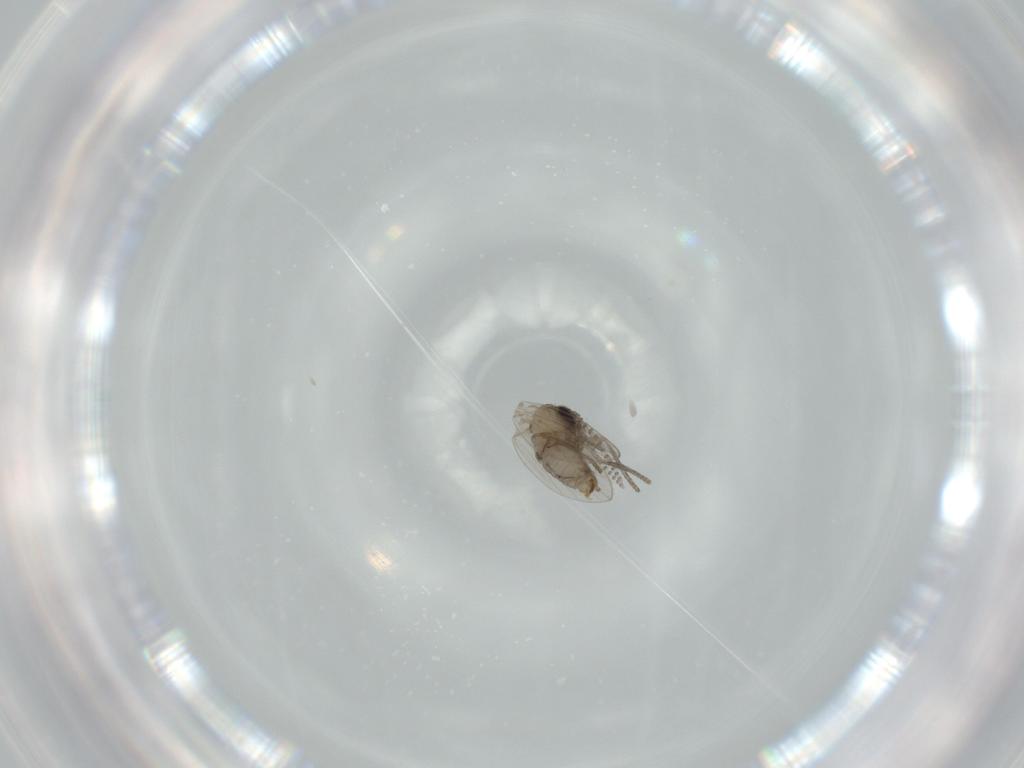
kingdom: Animalia
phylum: Arthropoda
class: Insecta
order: Diptera
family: Psychodidae
